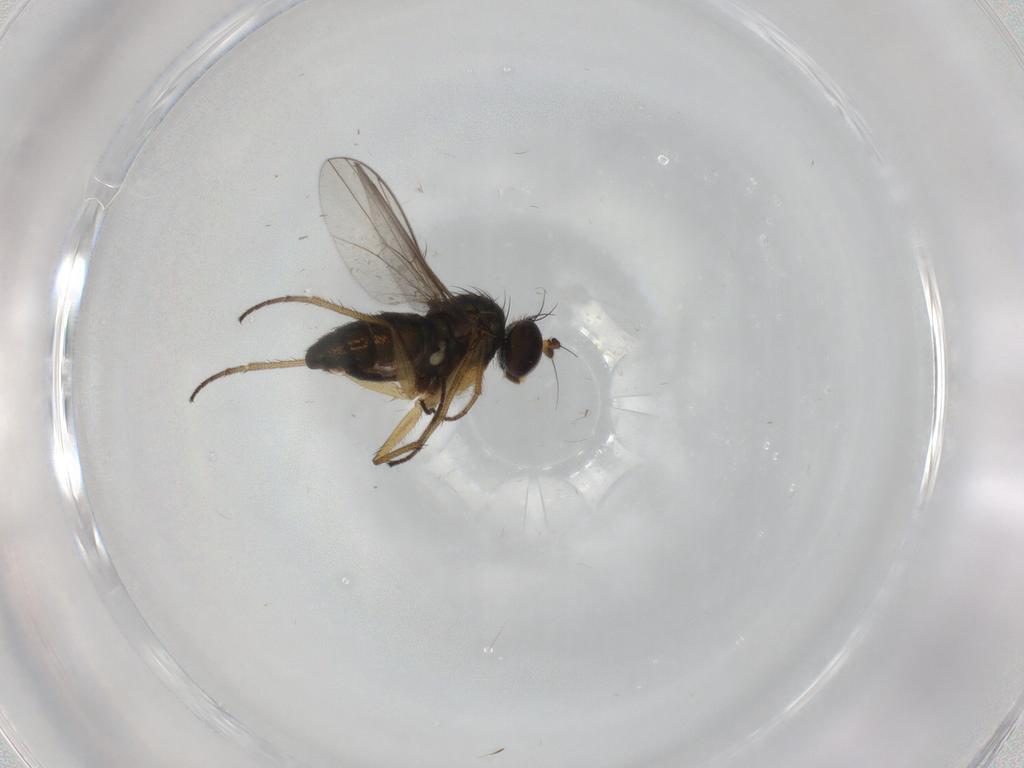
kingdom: Animalia
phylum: Arthropoda
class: Insecta
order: Diptera
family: Dolichopodidae
